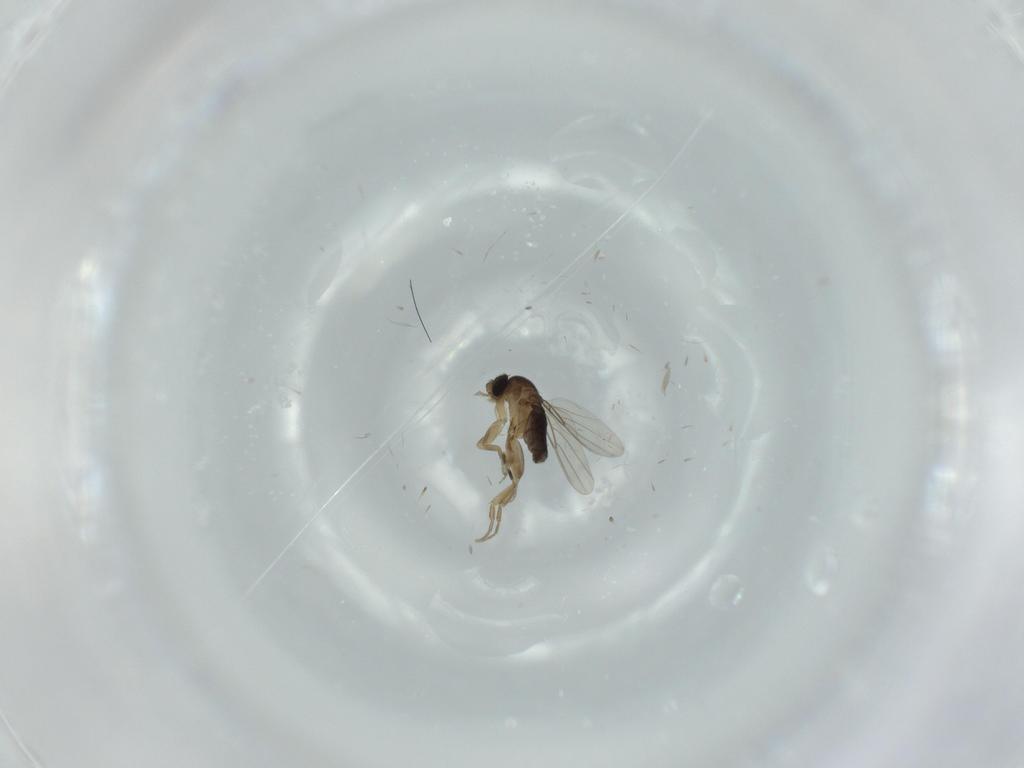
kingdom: Animalia
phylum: Arthropoda
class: Insecta
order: Diptera
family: Phoridae
